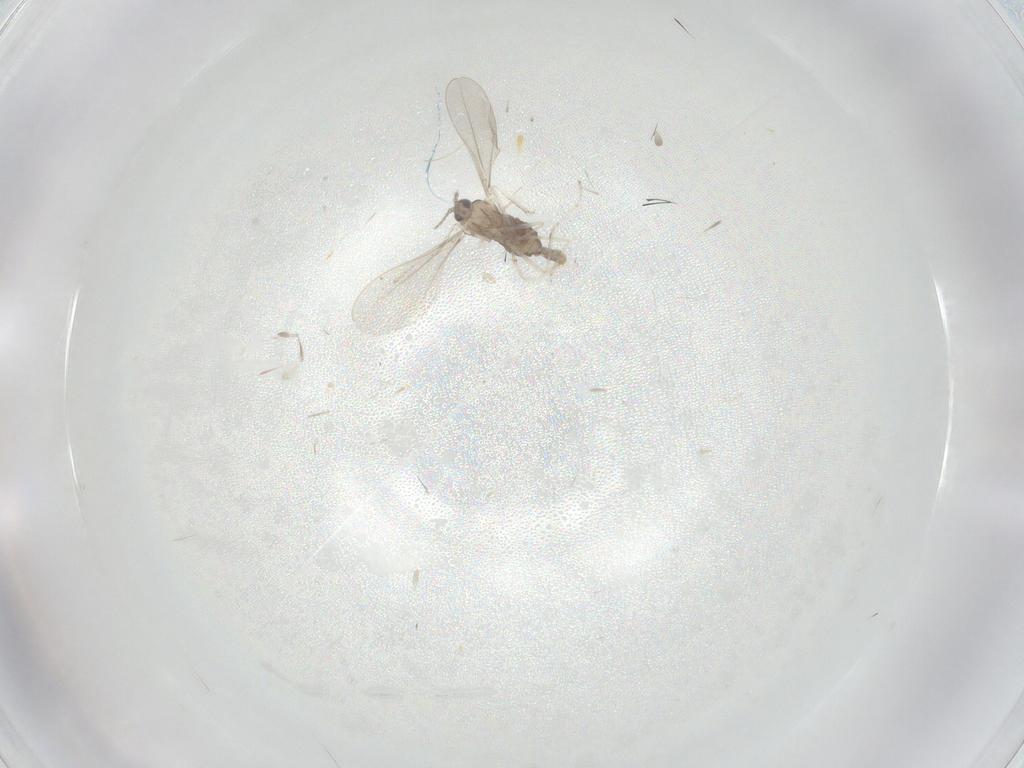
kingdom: Animalia
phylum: Arthropoda
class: Insecta
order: Diptera
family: Cecidomyiidae
